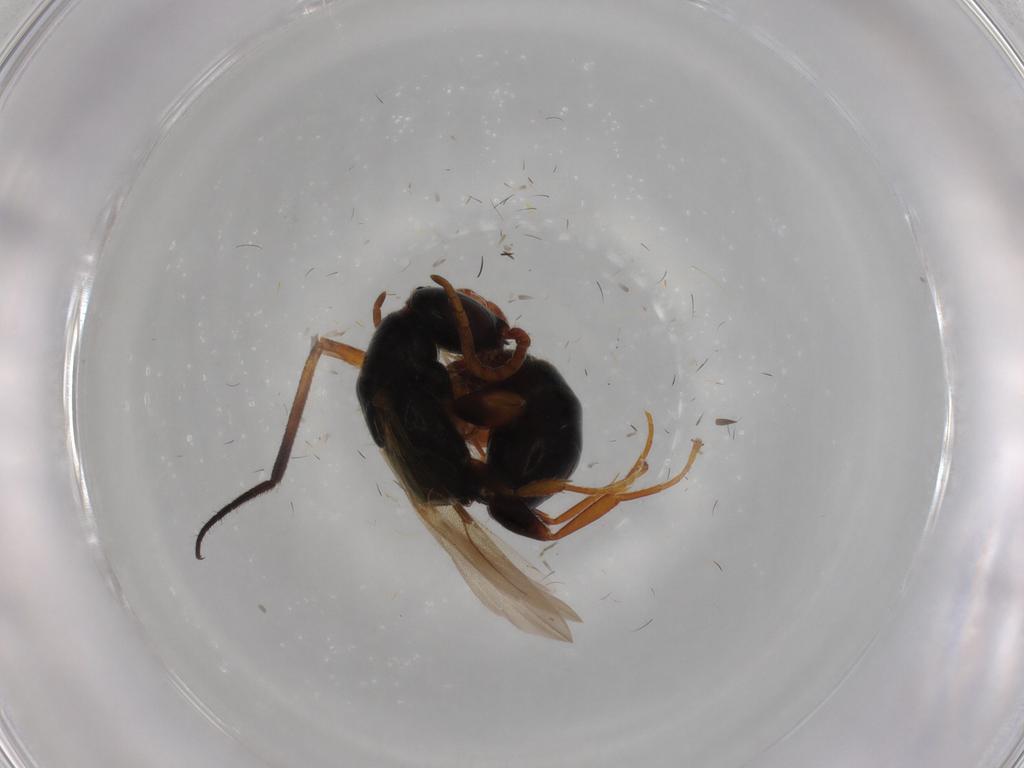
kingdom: Animalia
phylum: Arthropoda
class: Insecta
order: Hymenoptera
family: Bethylidae
